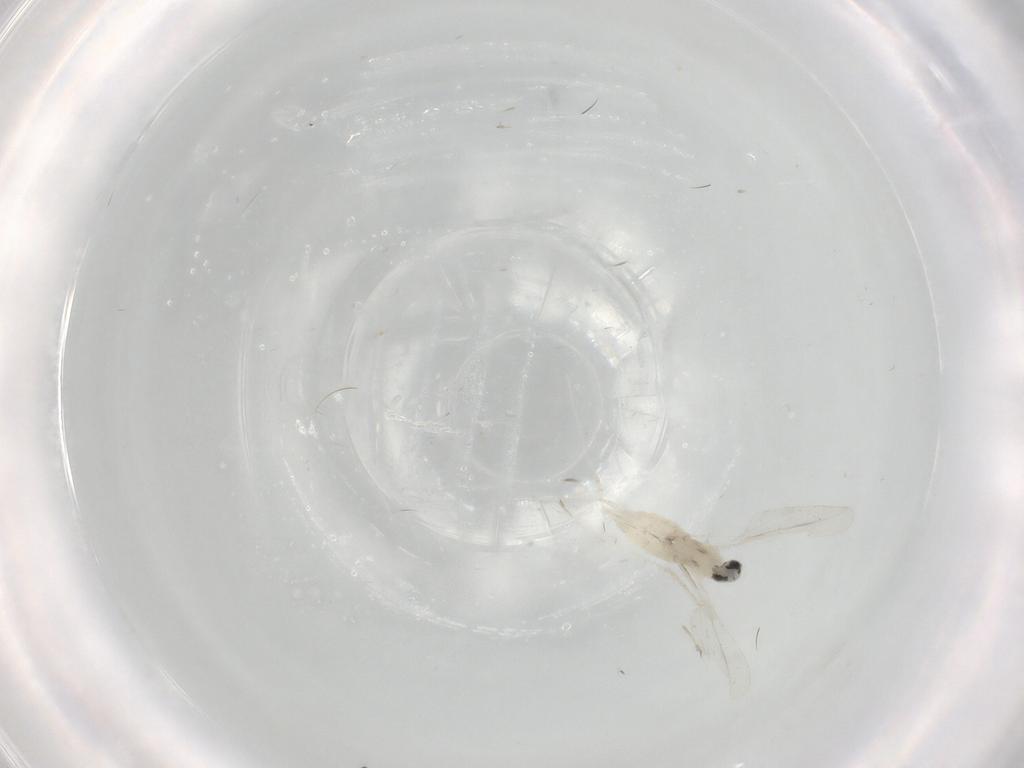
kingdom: Animalia
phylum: Arthropoda
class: Insecta
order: Diptera
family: Cecidomyiidae
